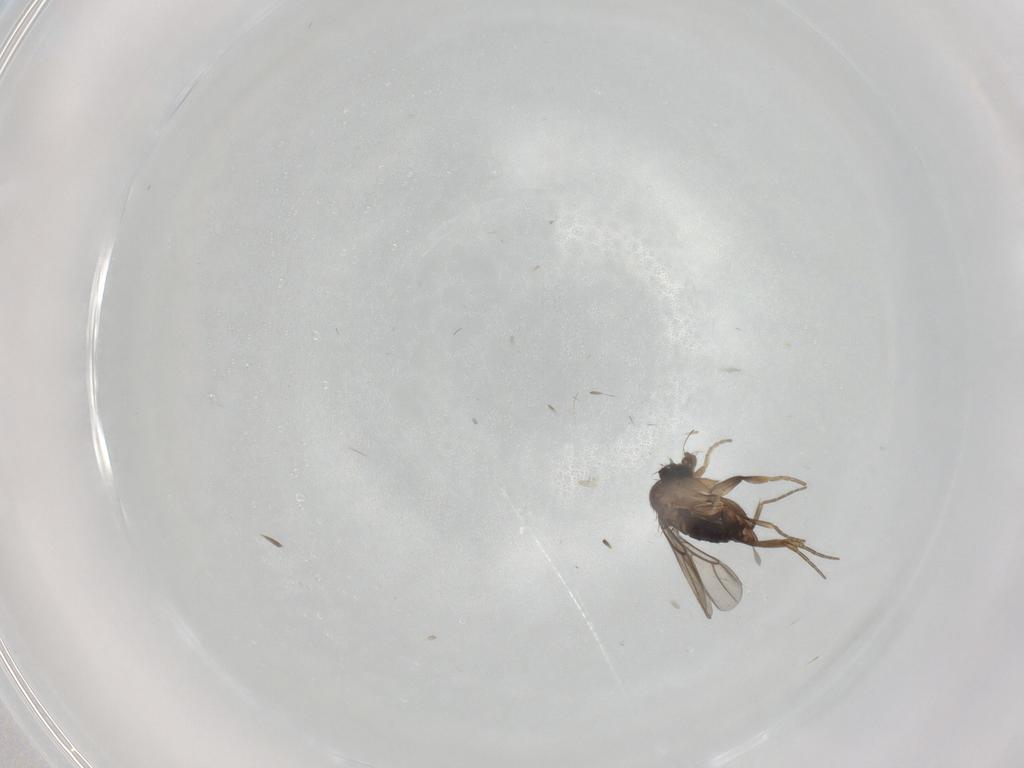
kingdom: Animalia
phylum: Arthropoda
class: Insecta
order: Diptera
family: Phoridae
